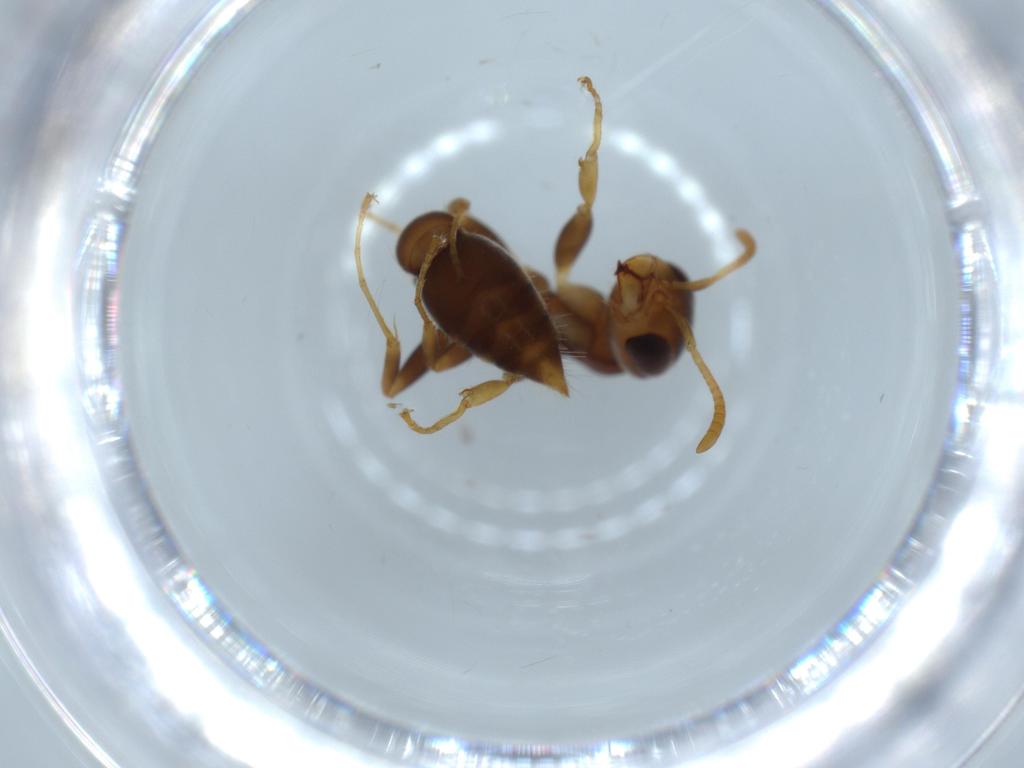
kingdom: Animalia
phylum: Arthropoda
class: Insecta
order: Hymenoptera
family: Formicidae
